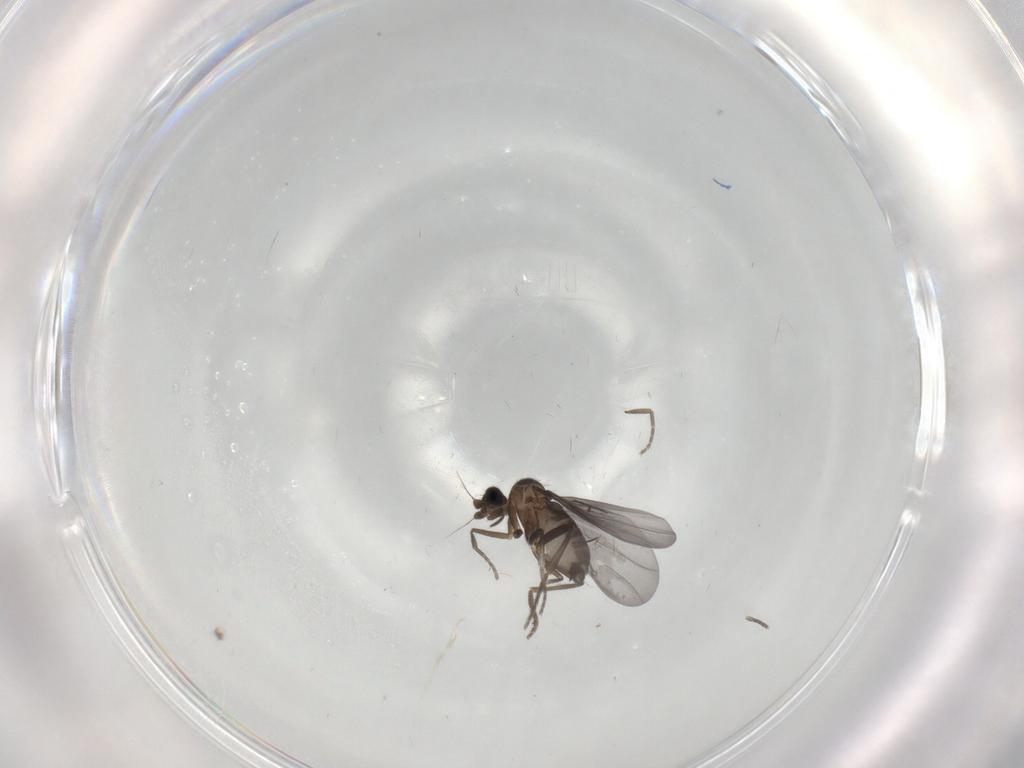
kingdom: Animalia
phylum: Arthropoda
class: Insecta
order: Diptera
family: Phoridae
